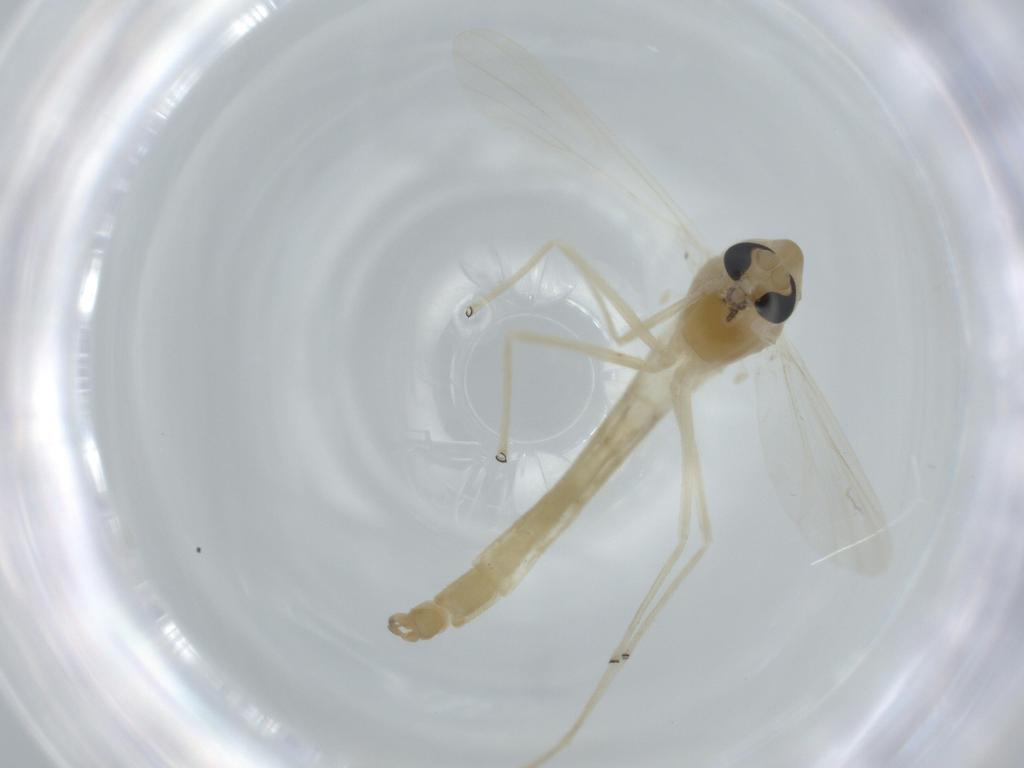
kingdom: Animalia
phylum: Arthropoda
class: Insecta
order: Diptera
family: Chironomidae
